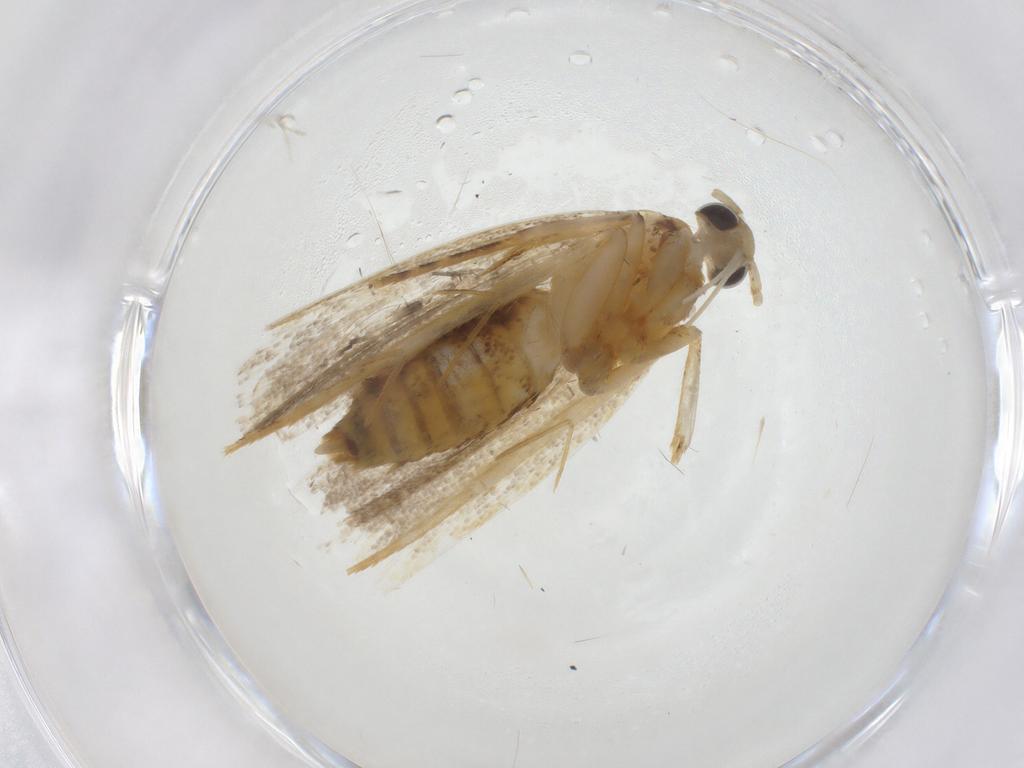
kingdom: Animalia
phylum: Arthropoda
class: Insecta
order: Lepidoptera
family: Lecithoceridae
